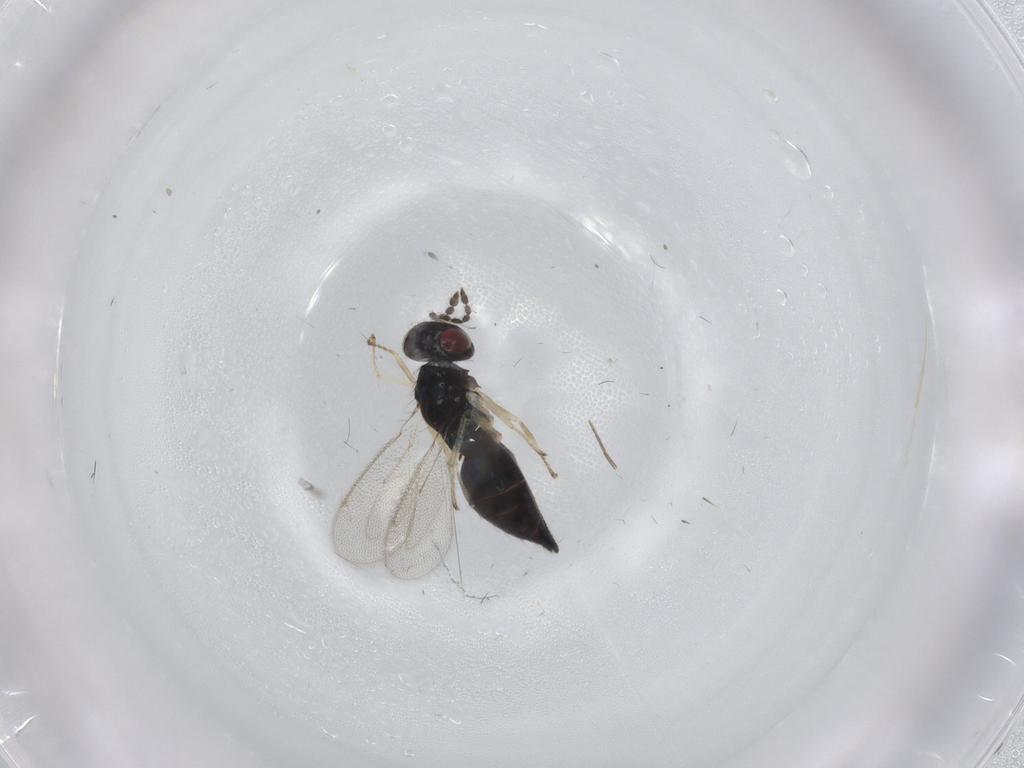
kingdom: Animalia
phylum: Arthropoda
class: Insecta
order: Hymenoptera
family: Eulophidae
